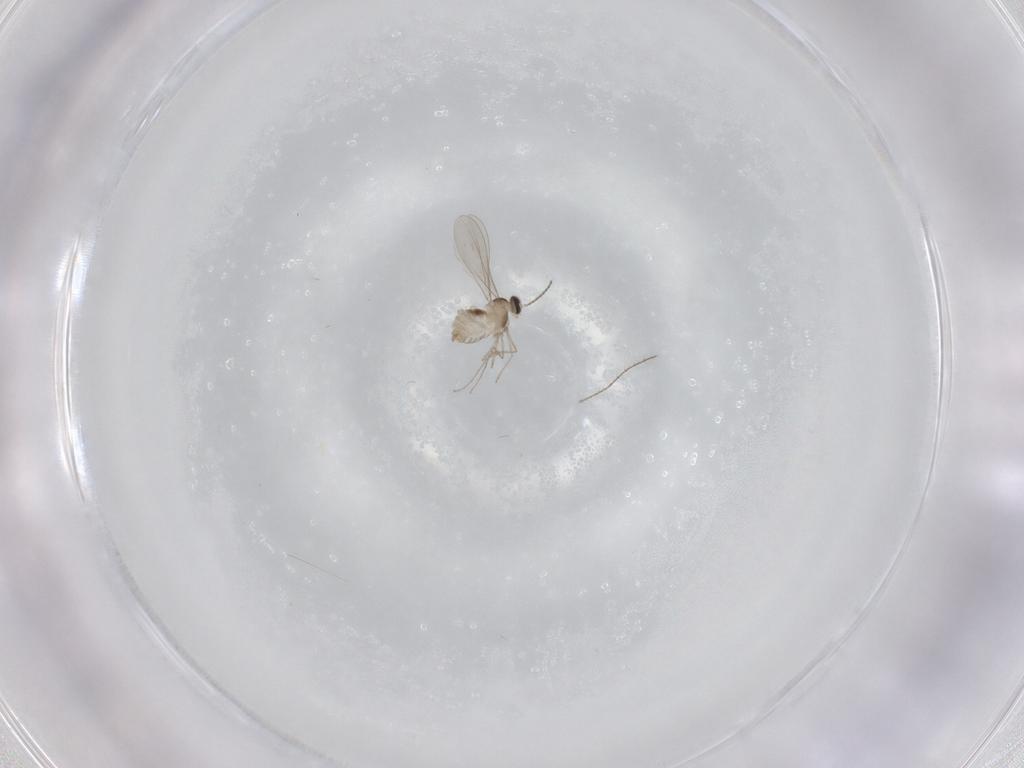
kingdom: Animalia
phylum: Arthropoda
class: Insecta
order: Diptera
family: Cecidomyiidae
